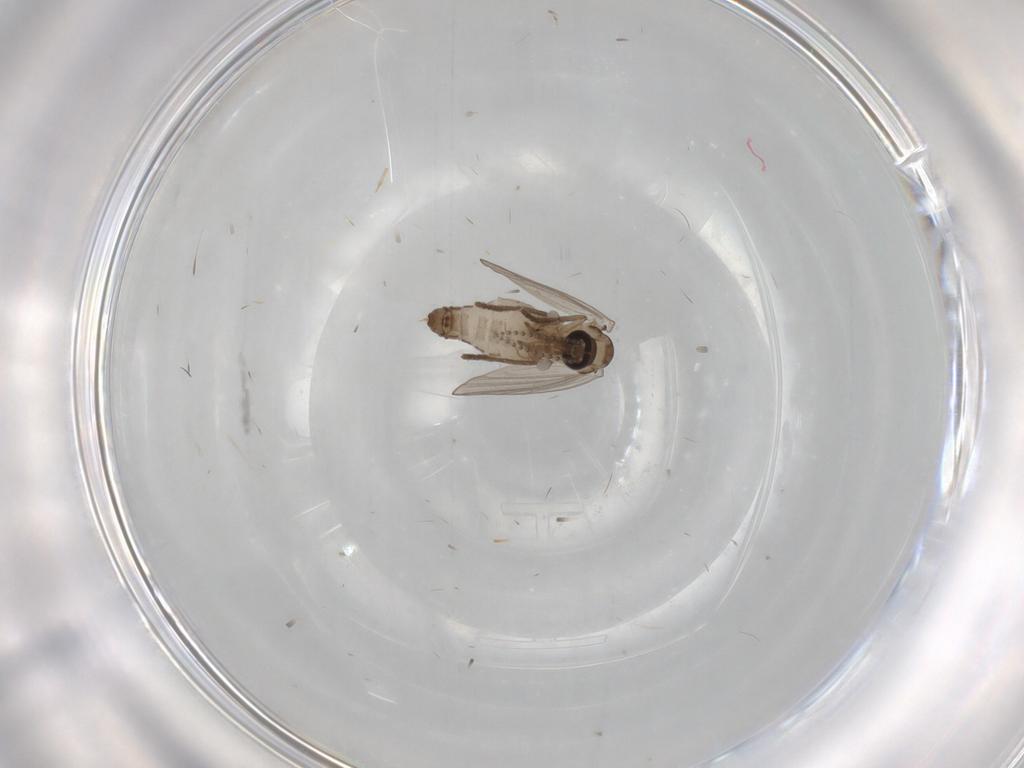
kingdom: Animalia
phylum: Arthropoda
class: Insecta
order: Diptera
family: Psychodidae
